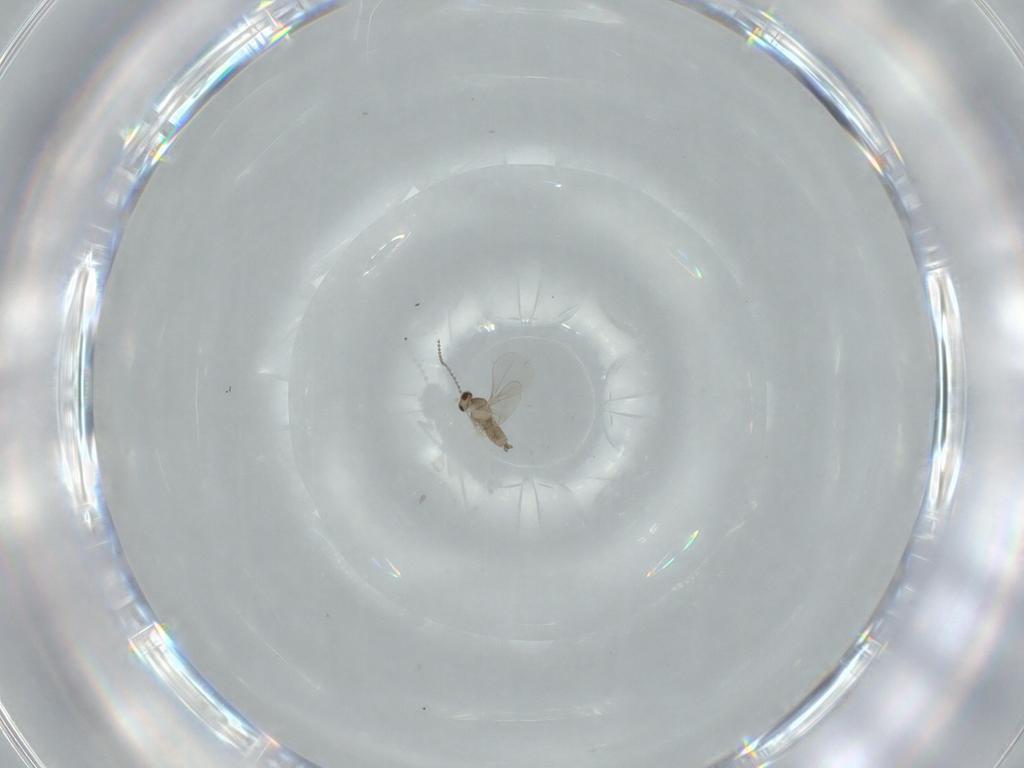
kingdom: Animalia
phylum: Arthropoda
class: Insecta
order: Diptera
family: Cecidomyiidae
